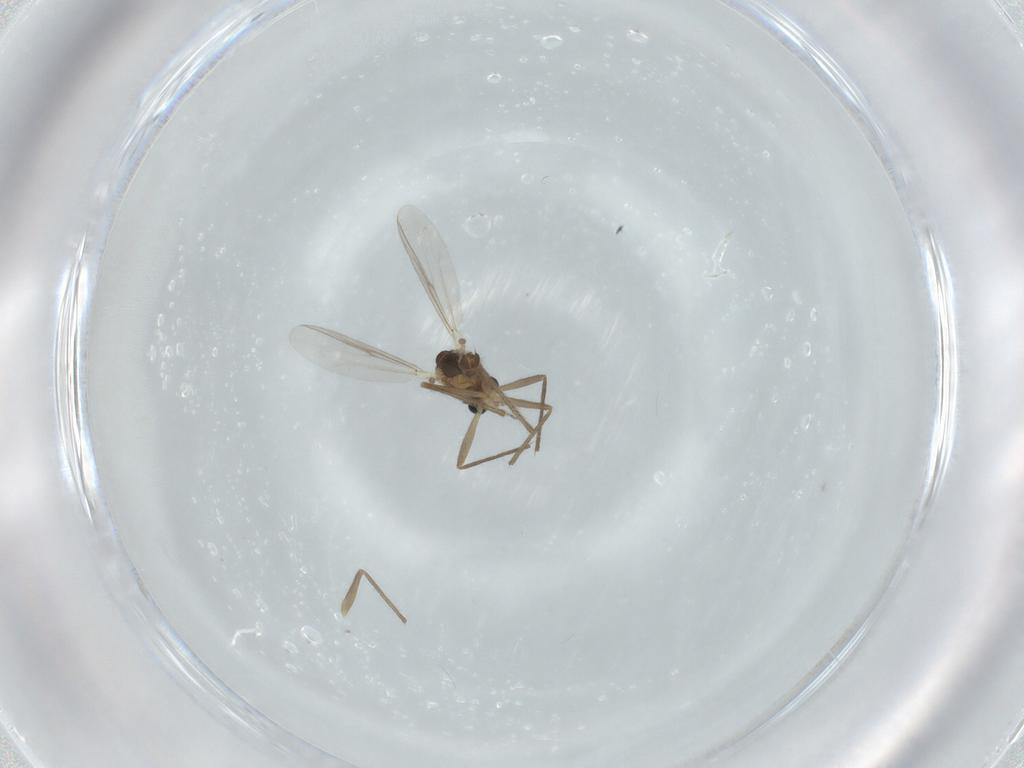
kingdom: Animalia
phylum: Arthropoda
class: Insecta
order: Diptera
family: Chironomidae
